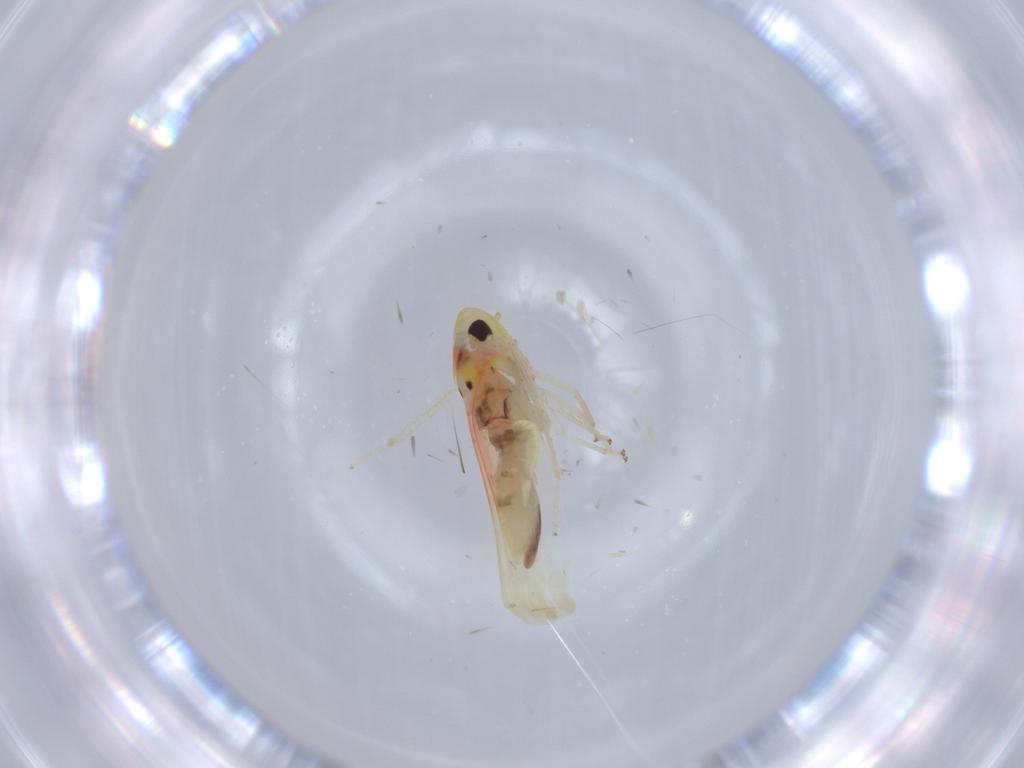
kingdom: Animalia
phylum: Arthropoda
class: Insecta
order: Hemiptera
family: Cicadellidae
